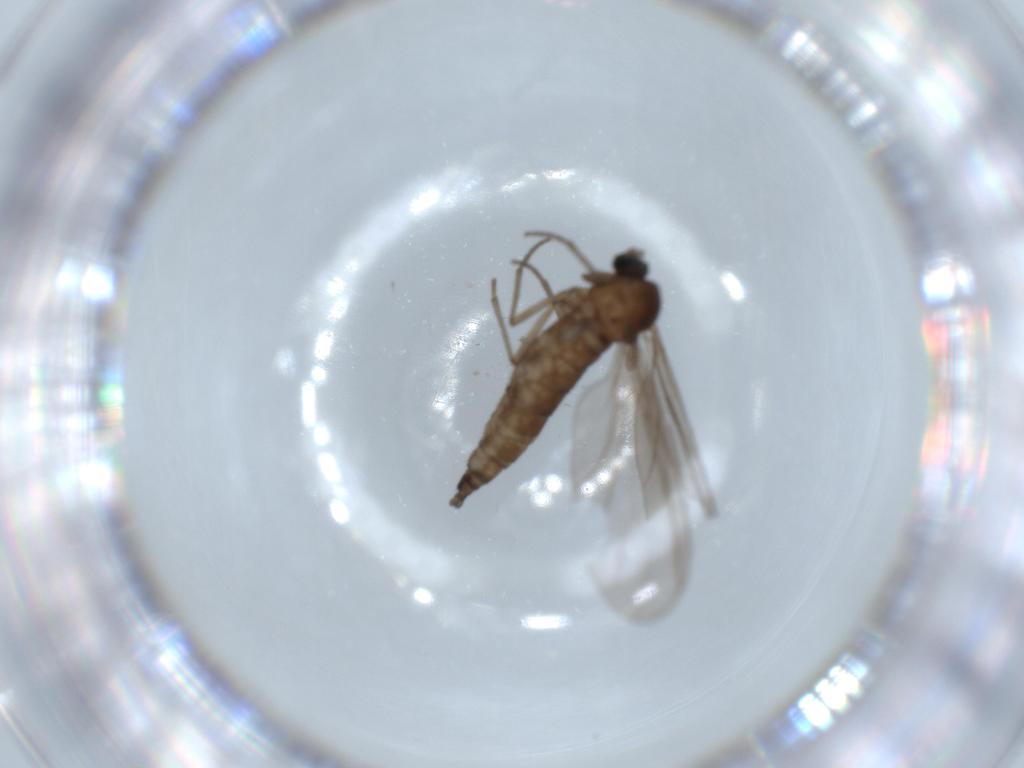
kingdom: Animalia
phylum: Arthropoda
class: Insecta
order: Diptera
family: Sciaridae
